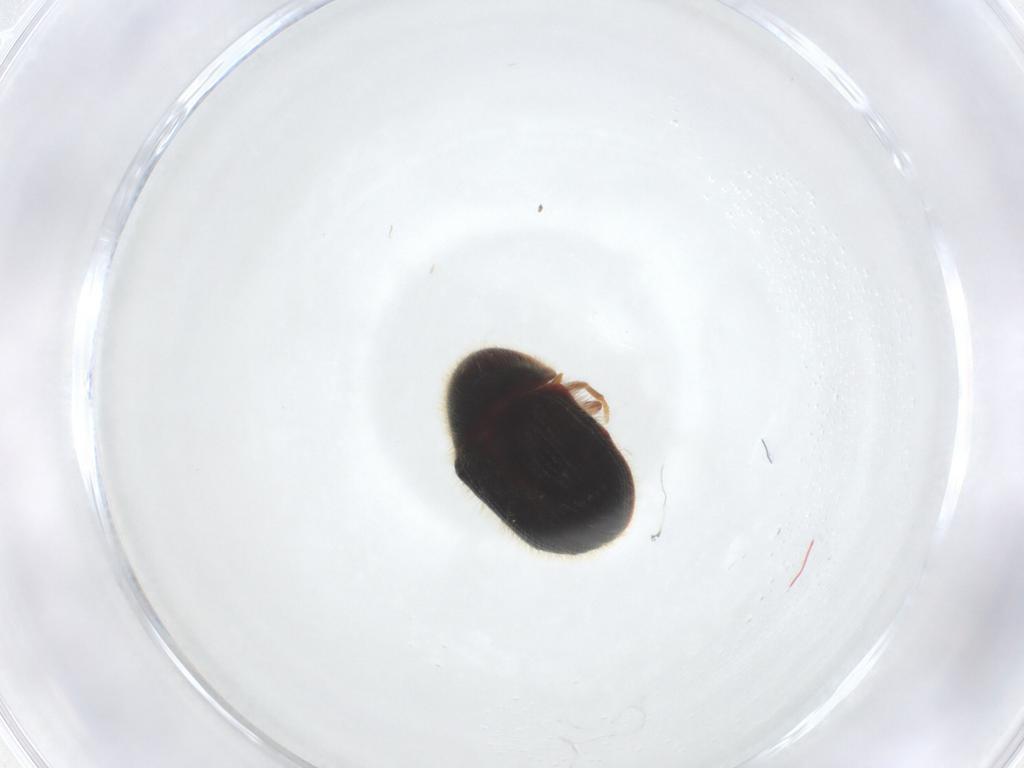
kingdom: Animalia
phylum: Arthropoda
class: Insecta
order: Coleoptera
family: Ptinidae
